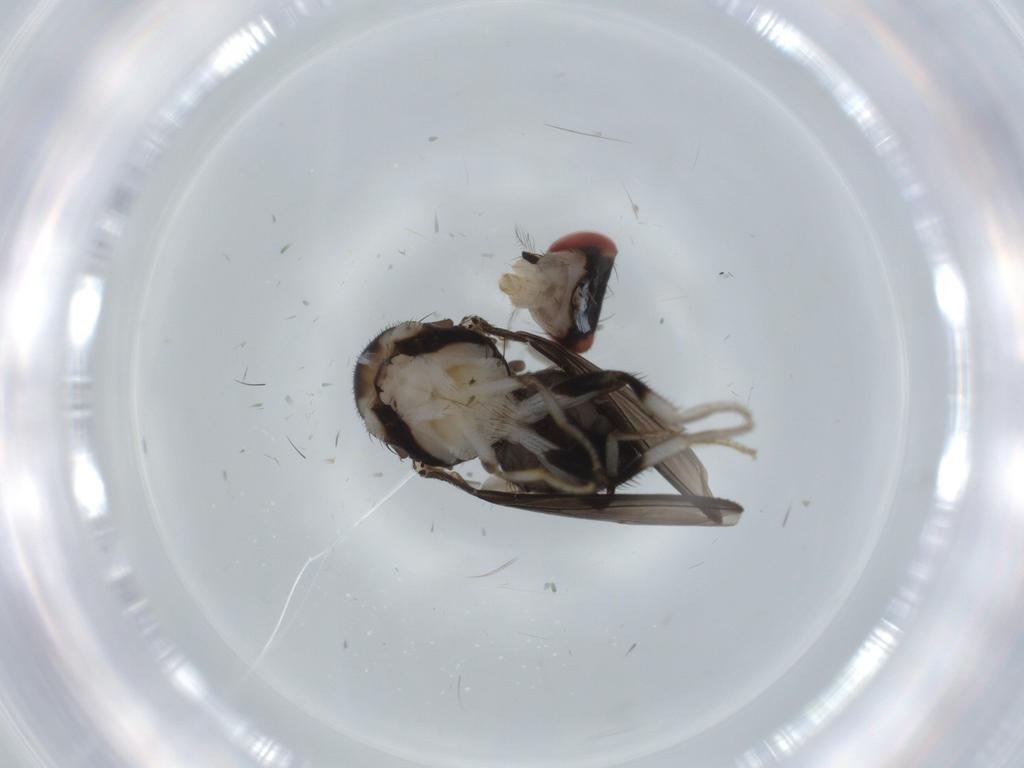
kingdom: Animalia
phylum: Arthropoda
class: Insecta
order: Diptera
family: Drosophilidae
